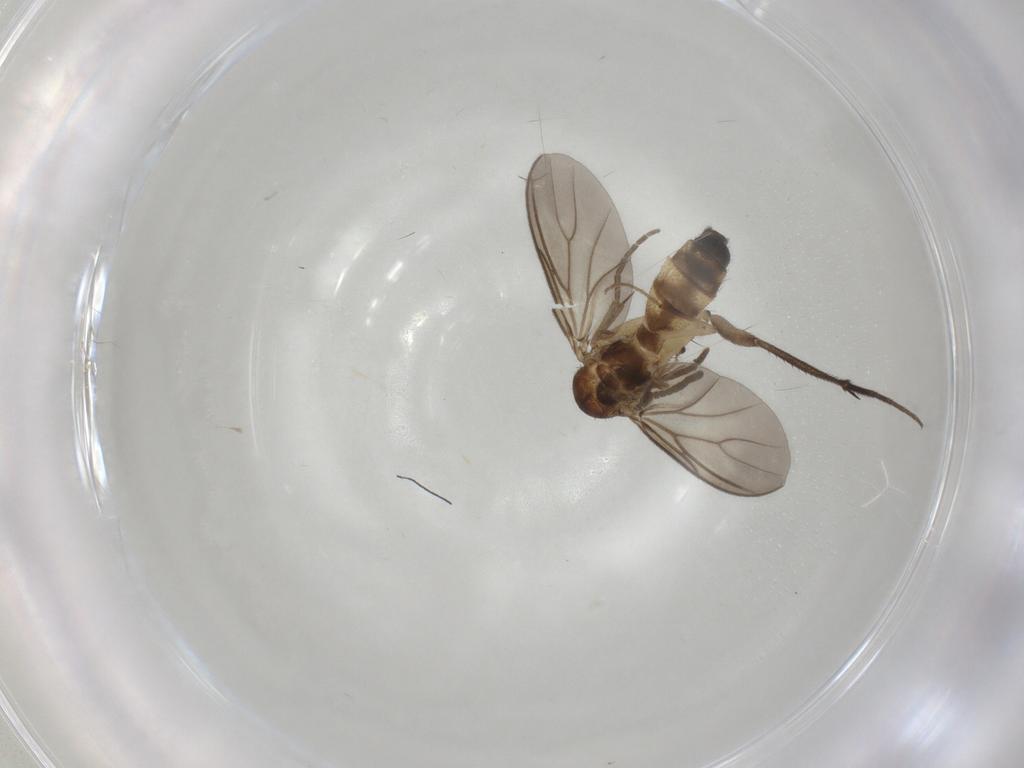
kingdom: Animalia
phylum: Arthropoda
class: Insecta
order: Diptera
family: Mycetophilidae
